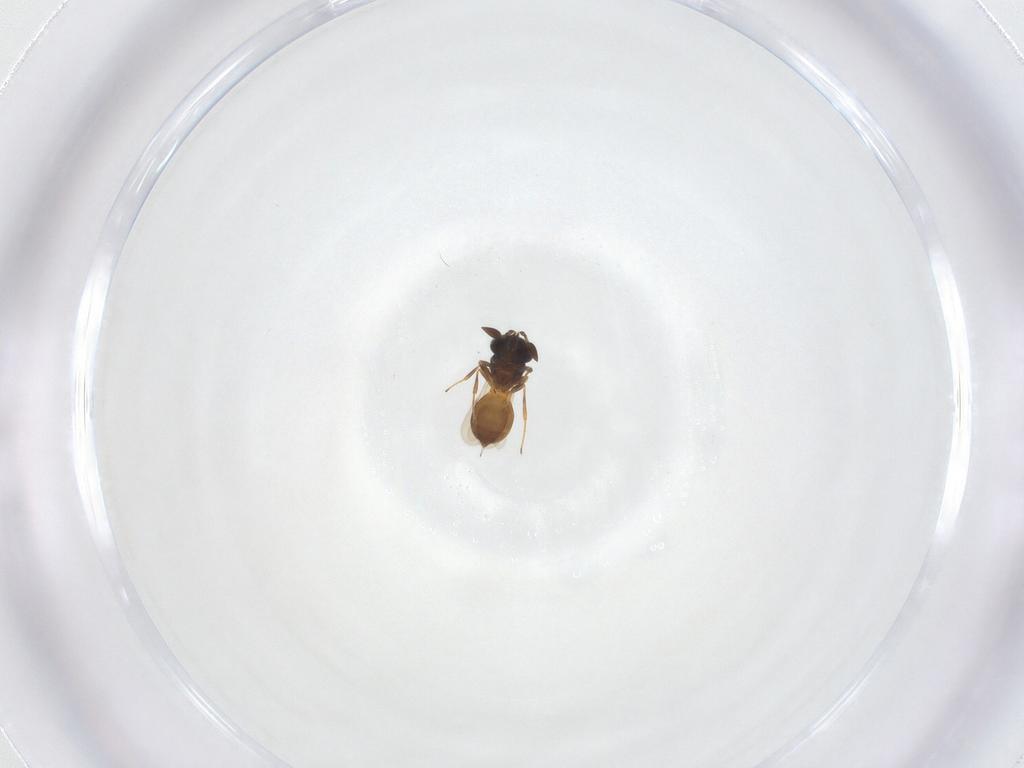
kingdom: Animalia
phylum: Arthropoda
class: Insecta
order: Hymenoptera
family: Scelionidae
